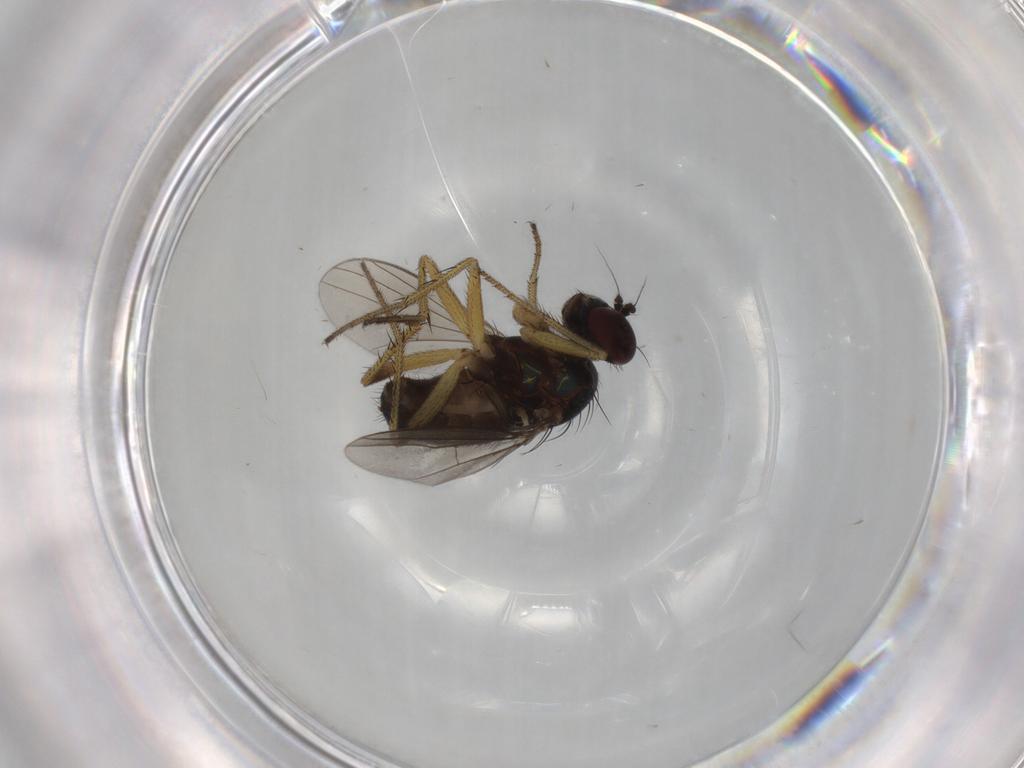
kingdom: Animalia
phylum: Arthropoda
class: Insecta
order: Diptera
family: Dolichopodidae
